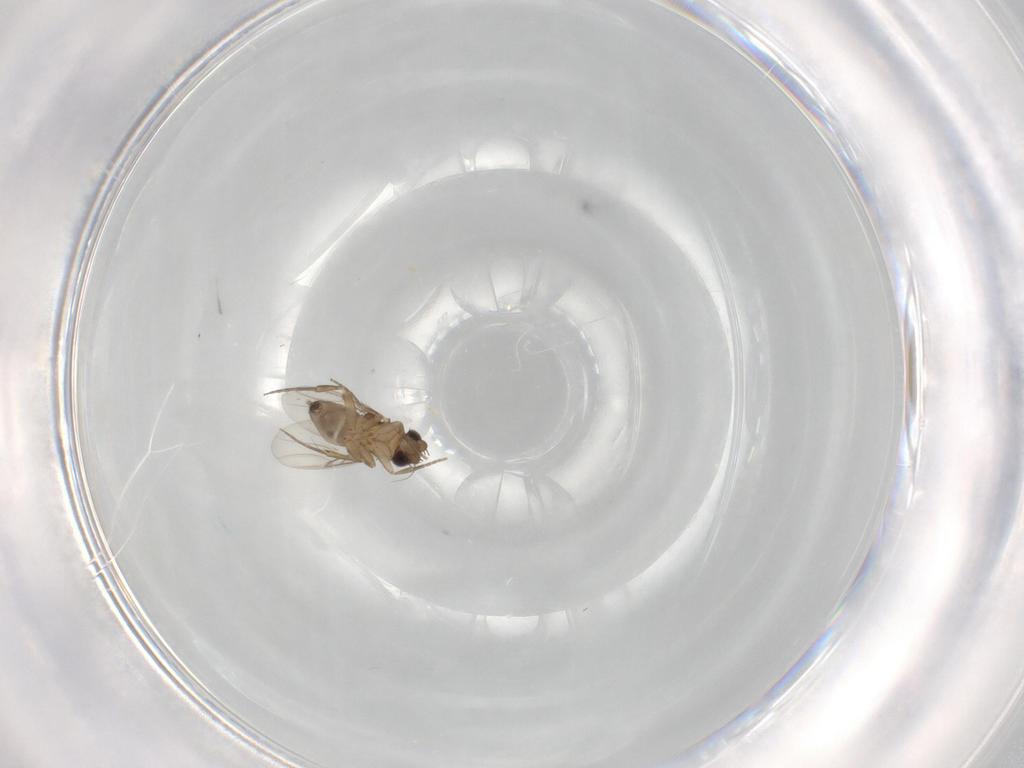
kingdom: Animalia
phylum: Arthropoda
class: Insecta
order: Diptera
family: Phoridae
